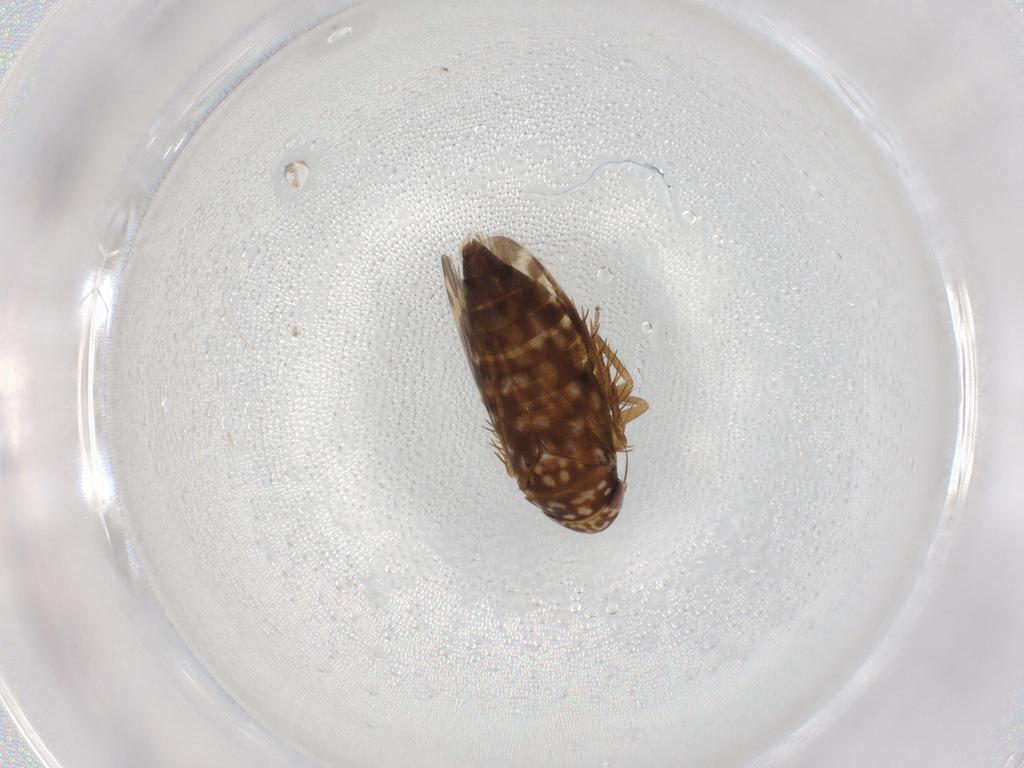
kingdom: Animalia
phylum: Arthropoda
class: Insecta
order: Hemiptera
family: Cicadellidae
